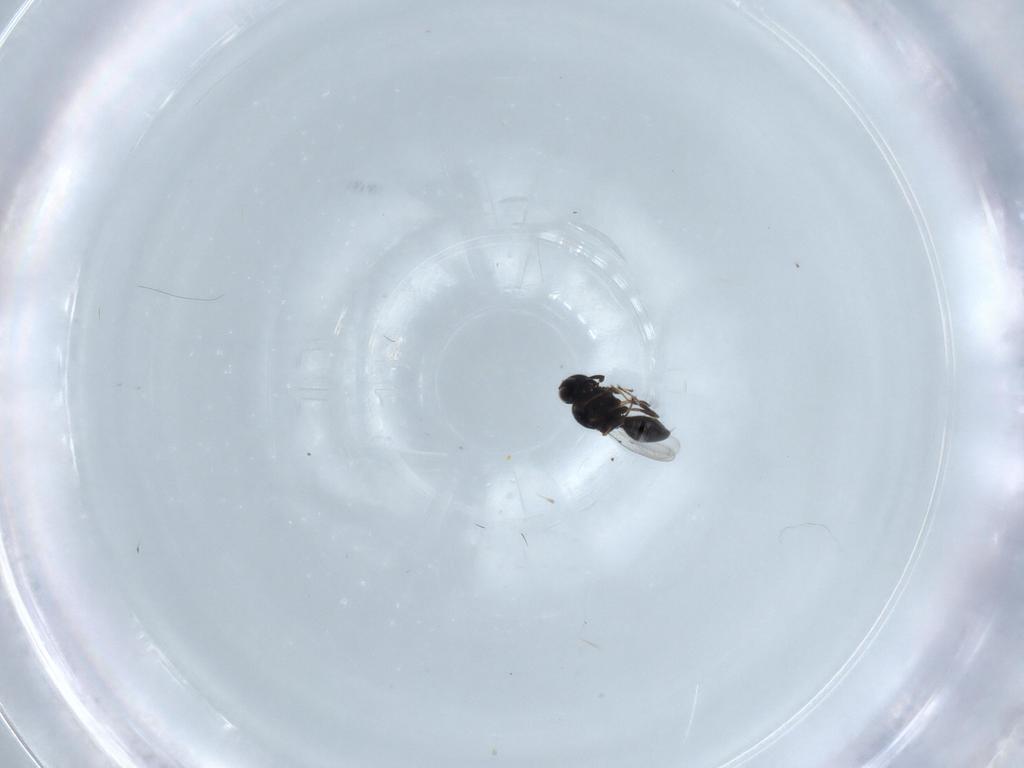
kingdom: Animalia
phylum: Arthropoda
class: Insecta
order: Hymenoptera
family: Platygastridae
